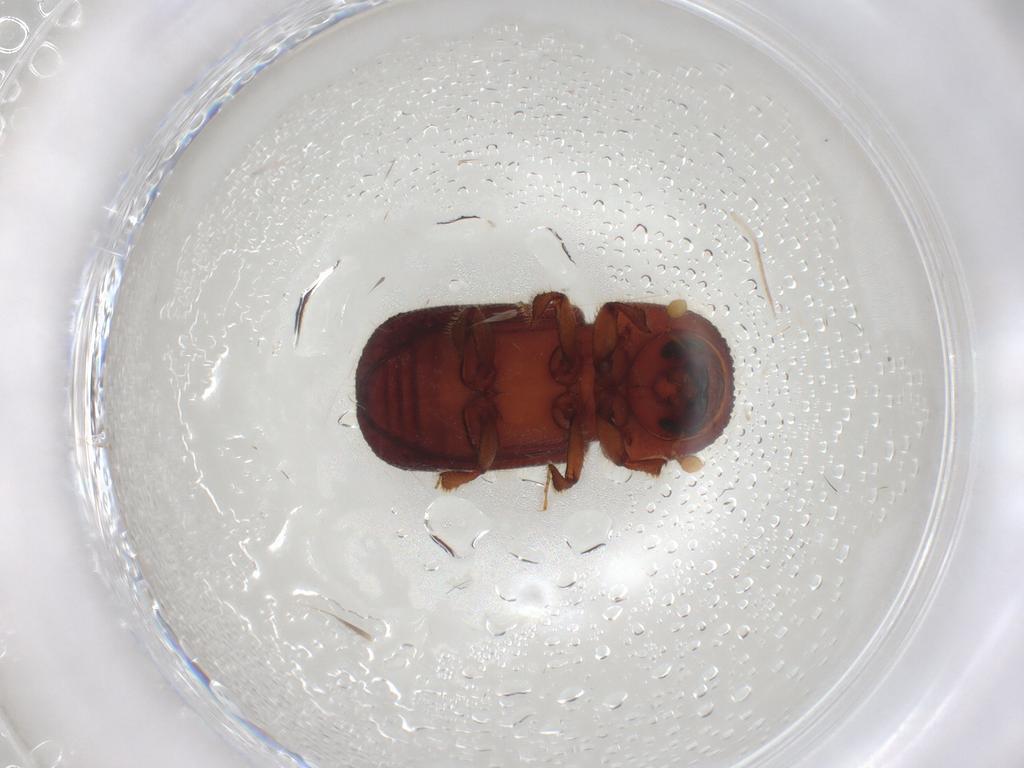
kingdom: Animalia
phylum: Arthropoda
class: Insecta
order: Coleoptera
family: Curculionidae
